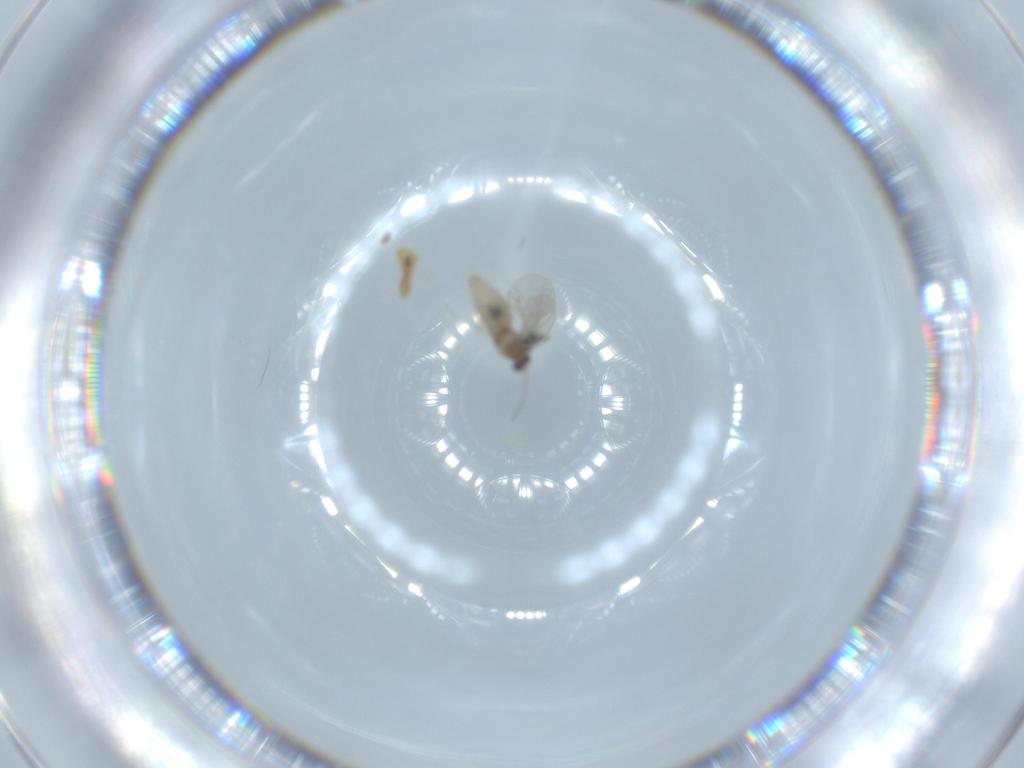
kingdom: Animalia
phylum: Arthropoda
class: Insecta
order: Diptera
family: Cecidomyiidae
